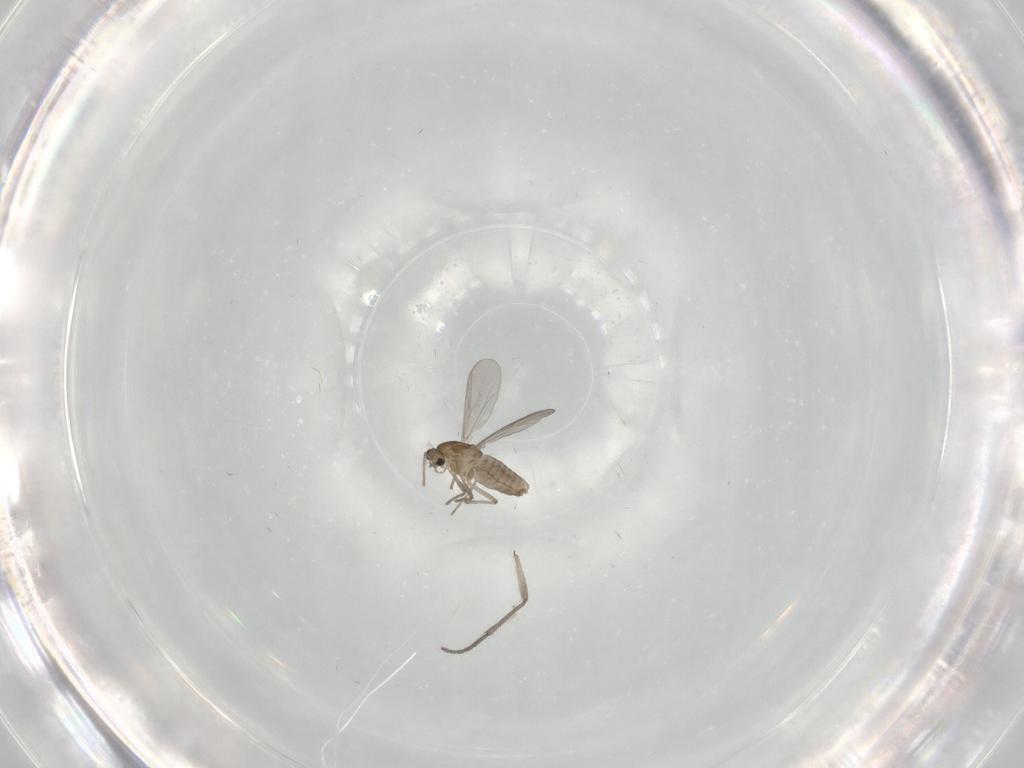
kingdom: Animalia
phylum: Arthropoda
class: Insecta
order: Diptera
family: Chironomidae
